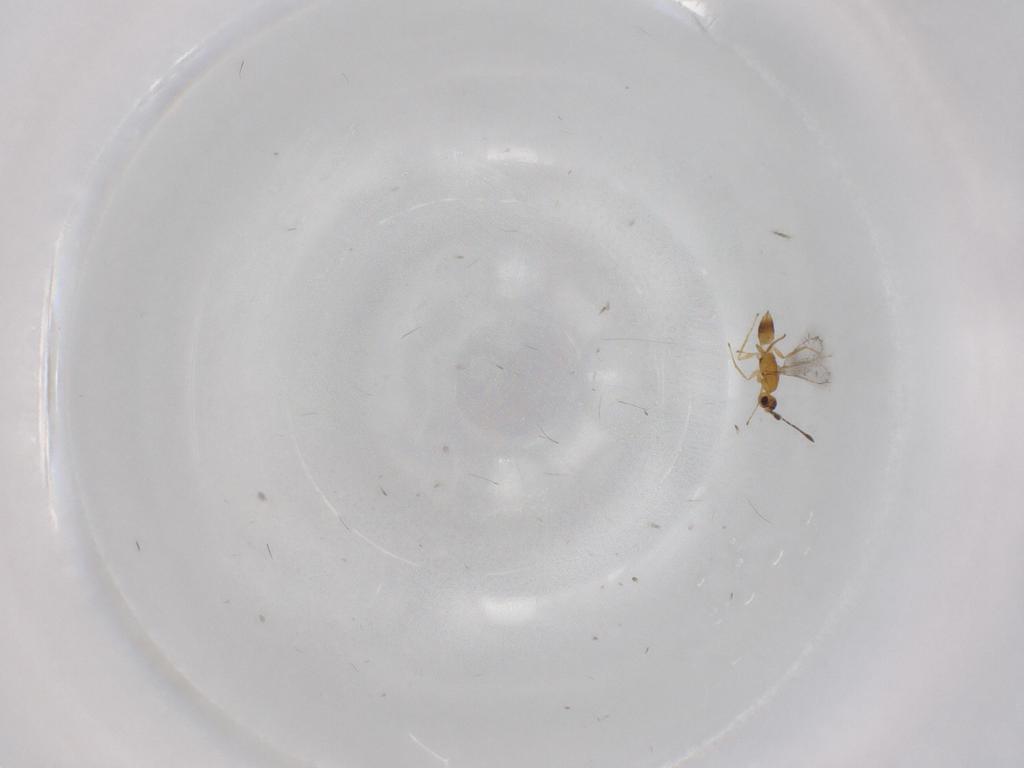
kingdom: Animalia
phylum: Arthropoda
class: Insecta
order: Hymenoptera
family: Mymaridae
